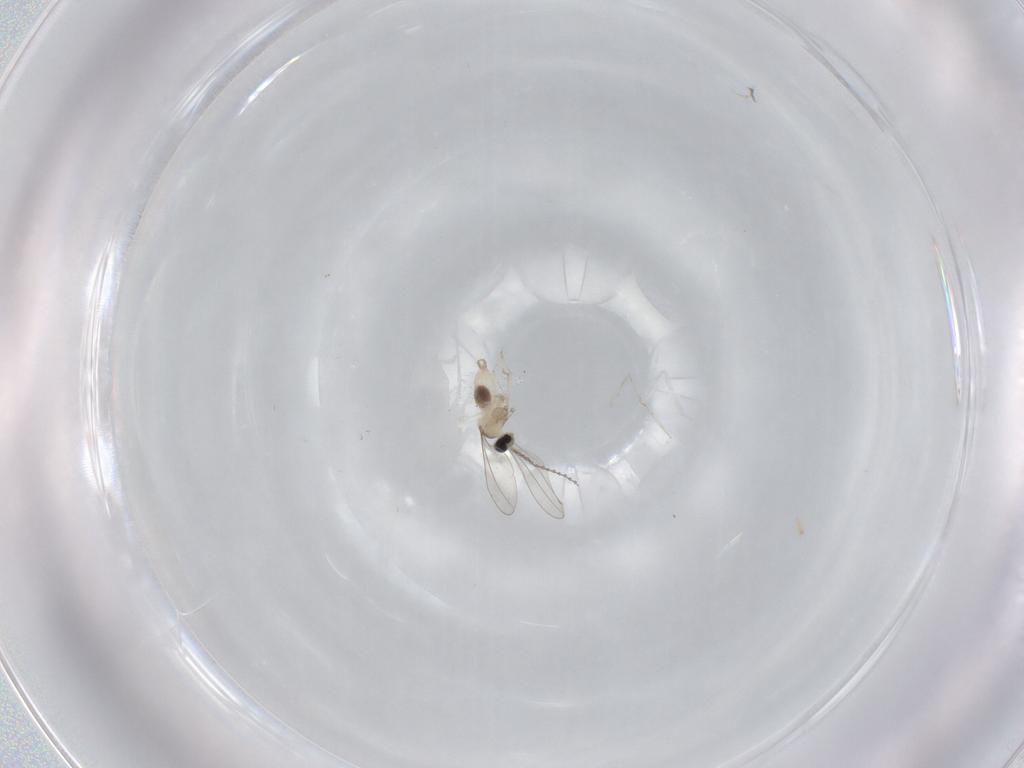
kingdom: Animalia
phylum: Arthropoda
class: Insecta
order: Diptera
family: Cecidomyiidae
